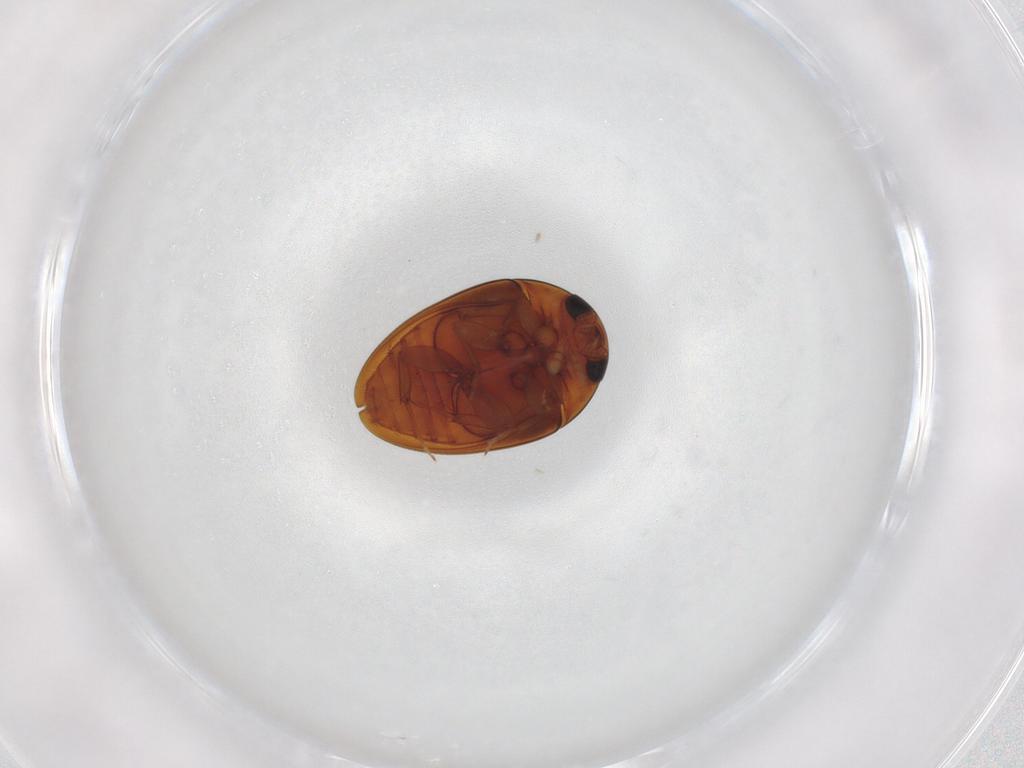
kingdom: Animalia
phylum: Arthropoda
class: Insecta
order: Coleoptera
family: Phalacridae
